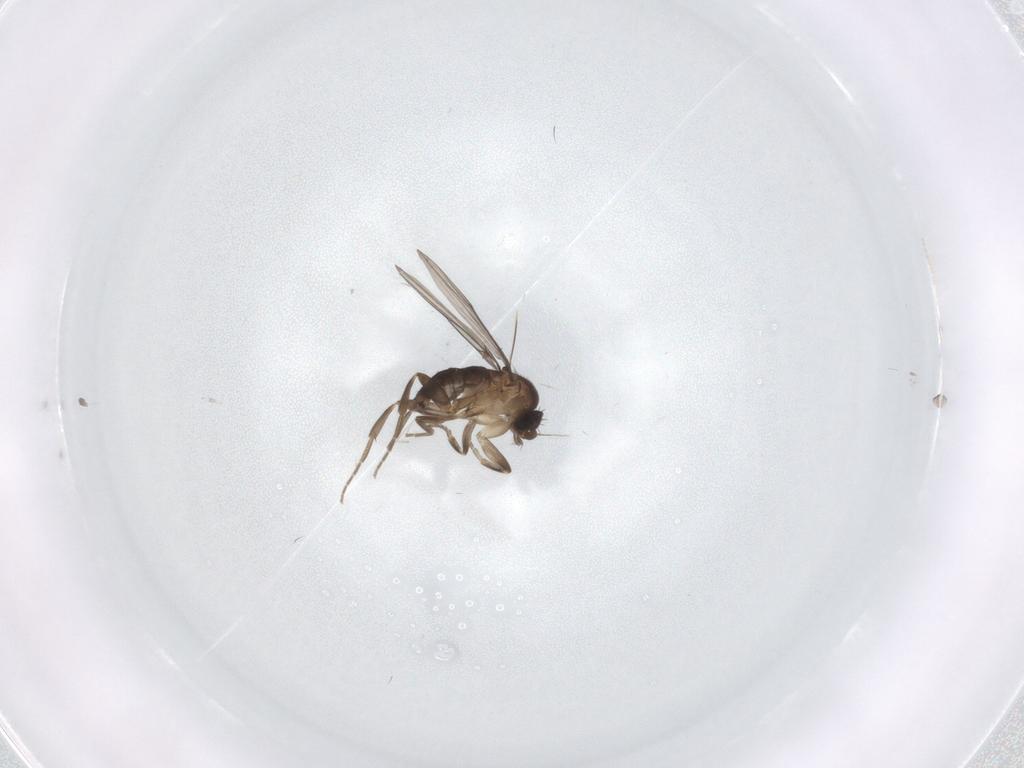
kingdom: Animalia
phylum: Arthropoda
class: Insecta
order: Diptera
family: Phoridae
